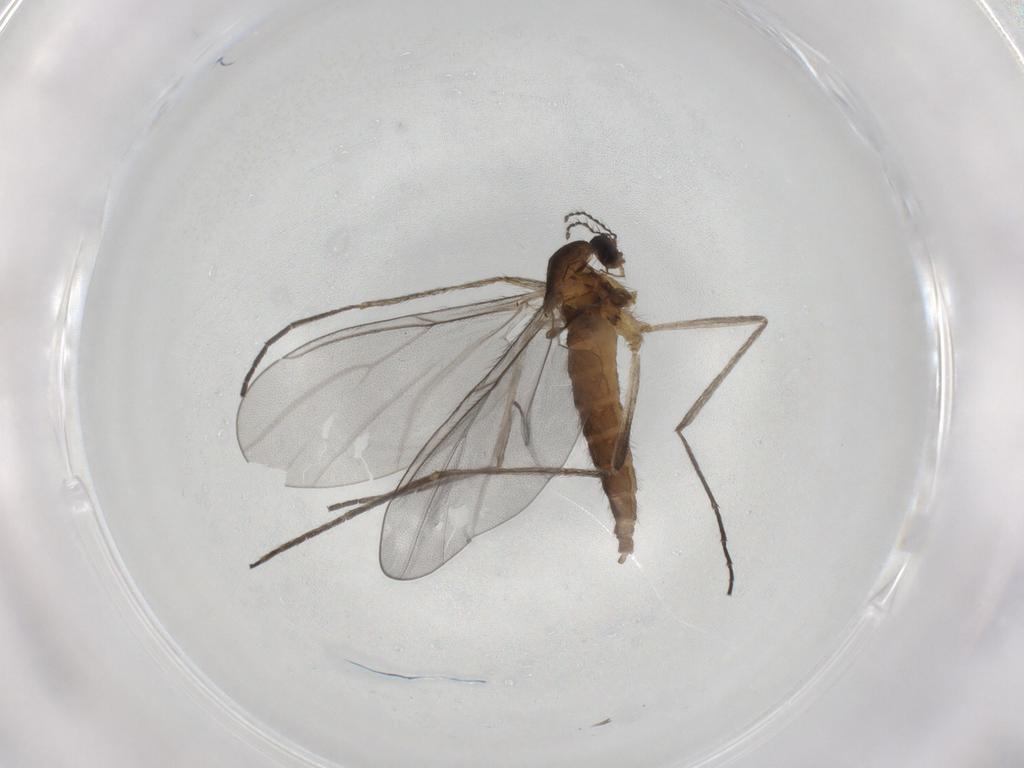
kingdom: Animalia
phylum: Arthropoda
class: Insecta
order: Diptera
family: Cecidomyiidae
